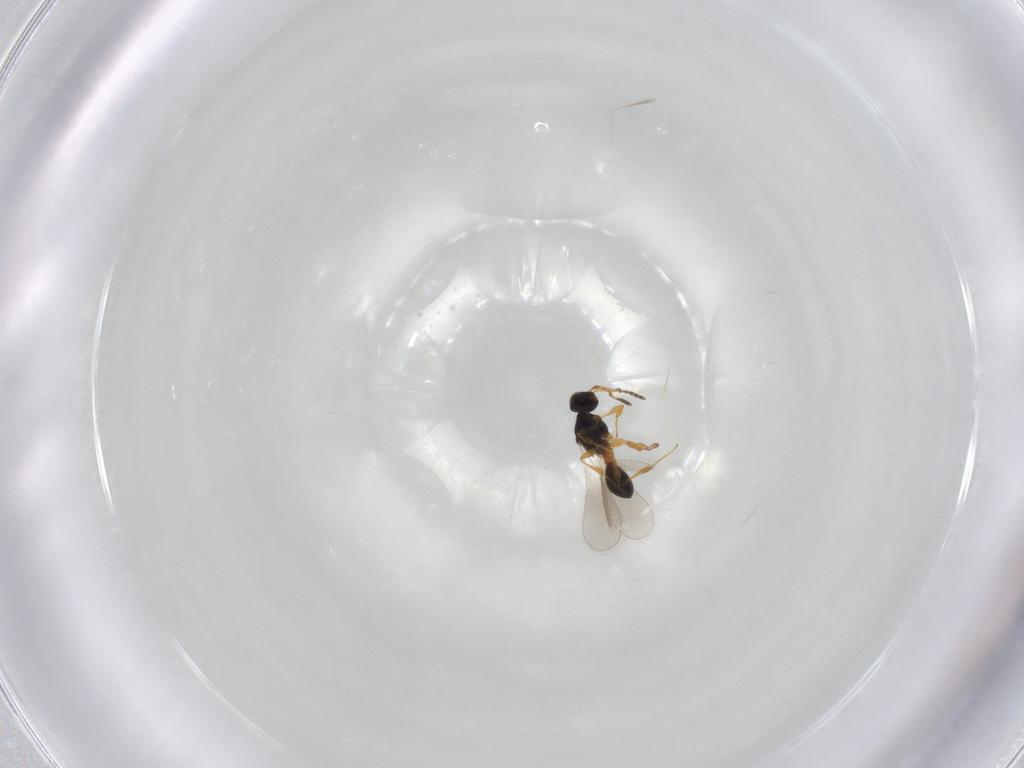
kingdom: Animalia
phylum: Arthropoda
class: Insecta
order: Hymenoptera
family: Platygastridae
